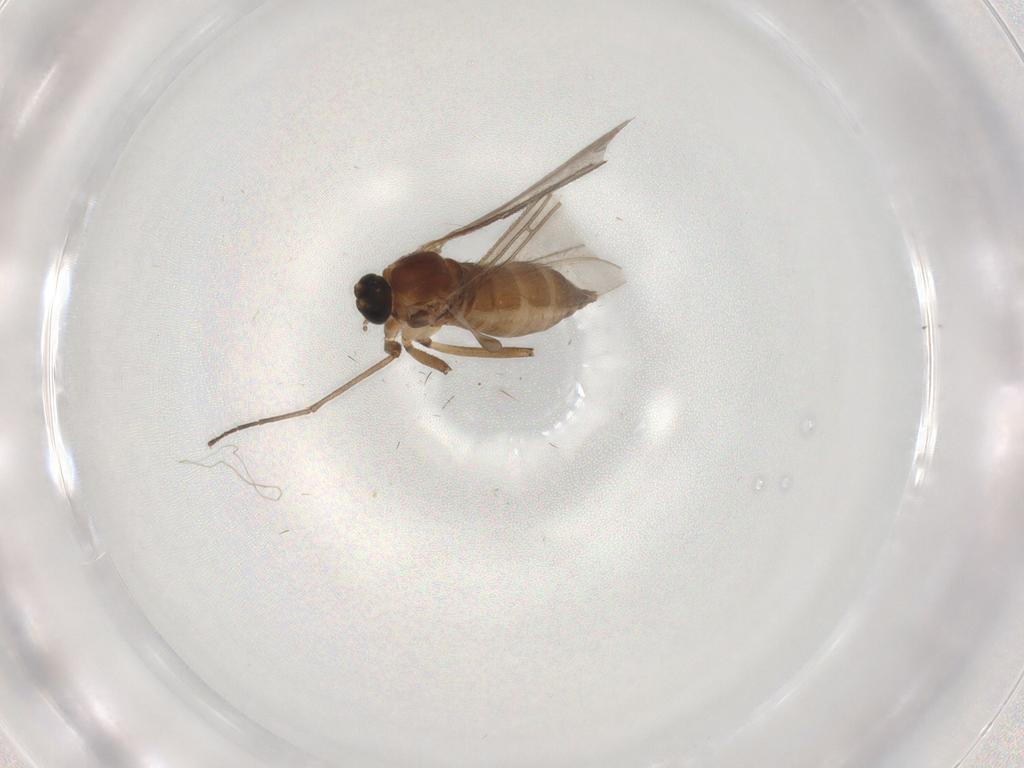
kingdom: Animalia
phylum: Arthropoda
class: Insecta
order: Diptera
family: Sciaridae
